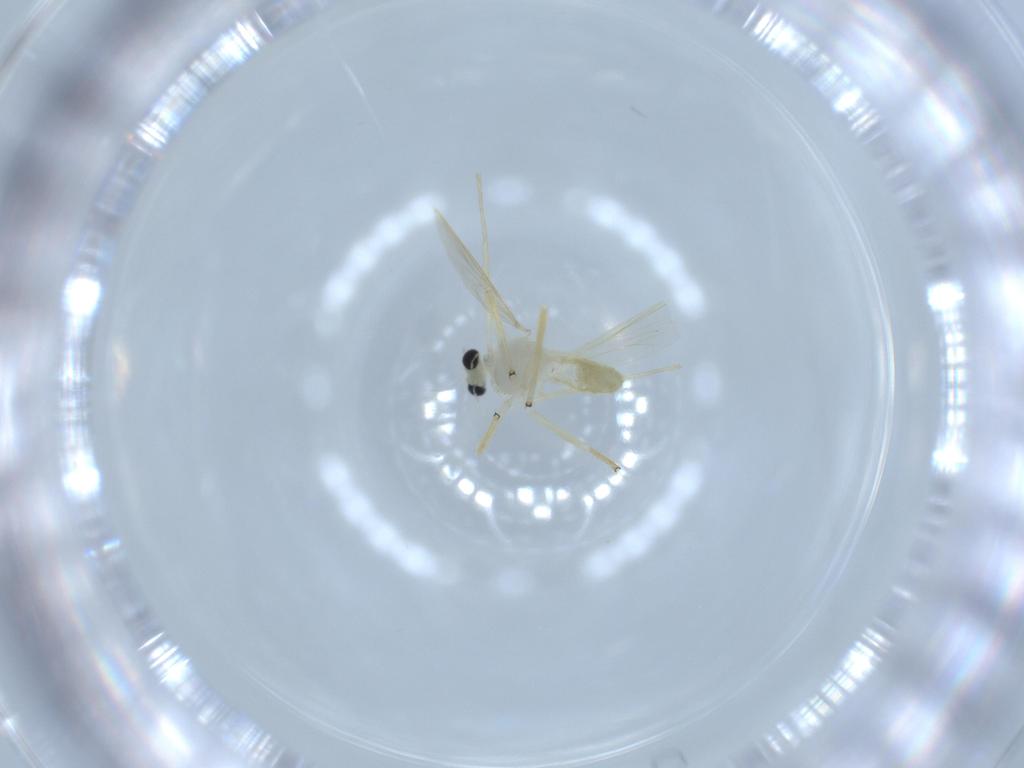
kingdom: Animalia
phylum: Arthropoda
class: Insecta
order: Diptera
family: Chironomidae
